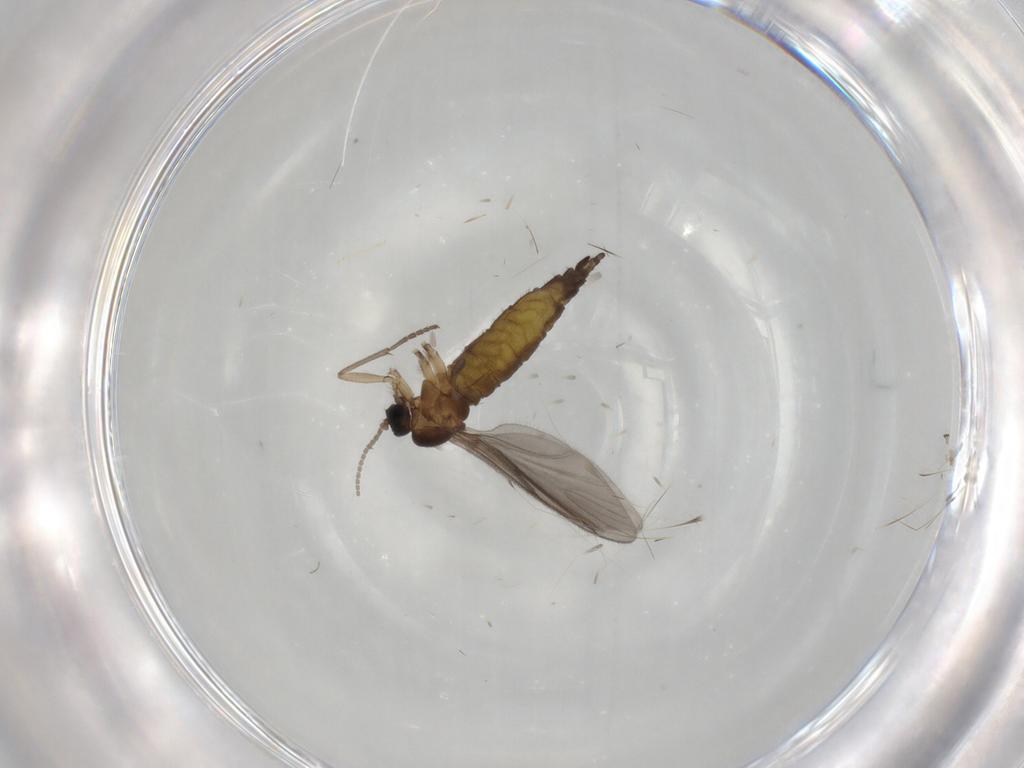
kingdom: Animalia
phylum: Arthropoda
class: Insecta
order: Diptera
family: Sciaridae
